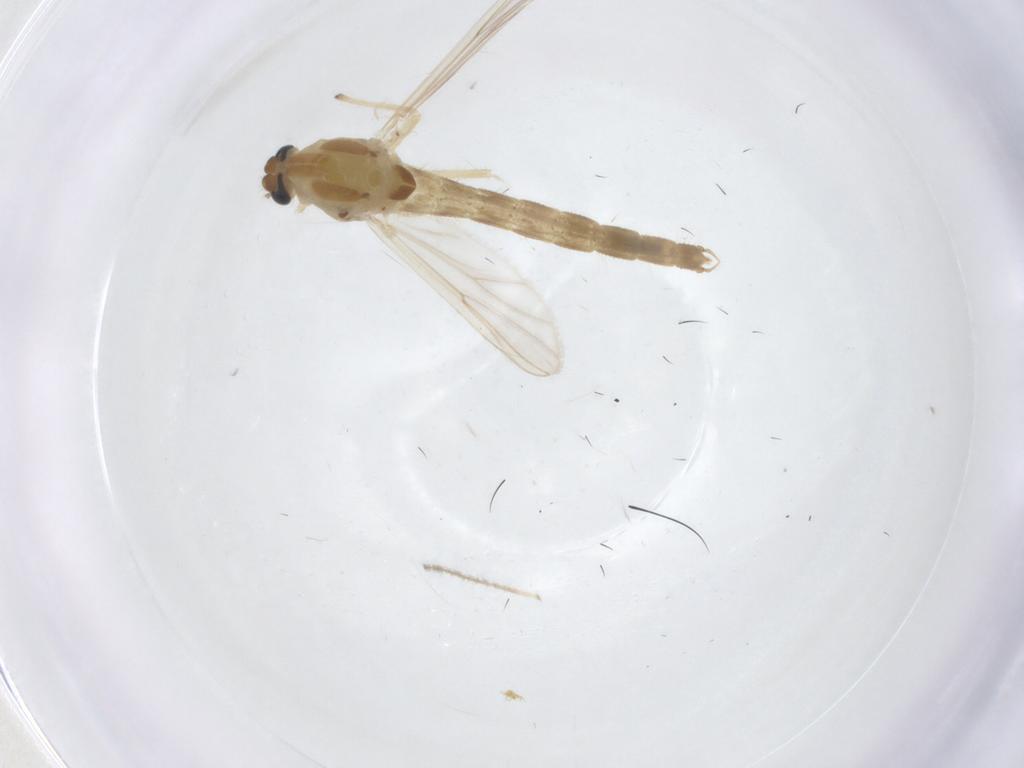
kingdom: Animalia
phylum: Arthropoda
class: Insecta
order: Diptera
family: Chironomidae
